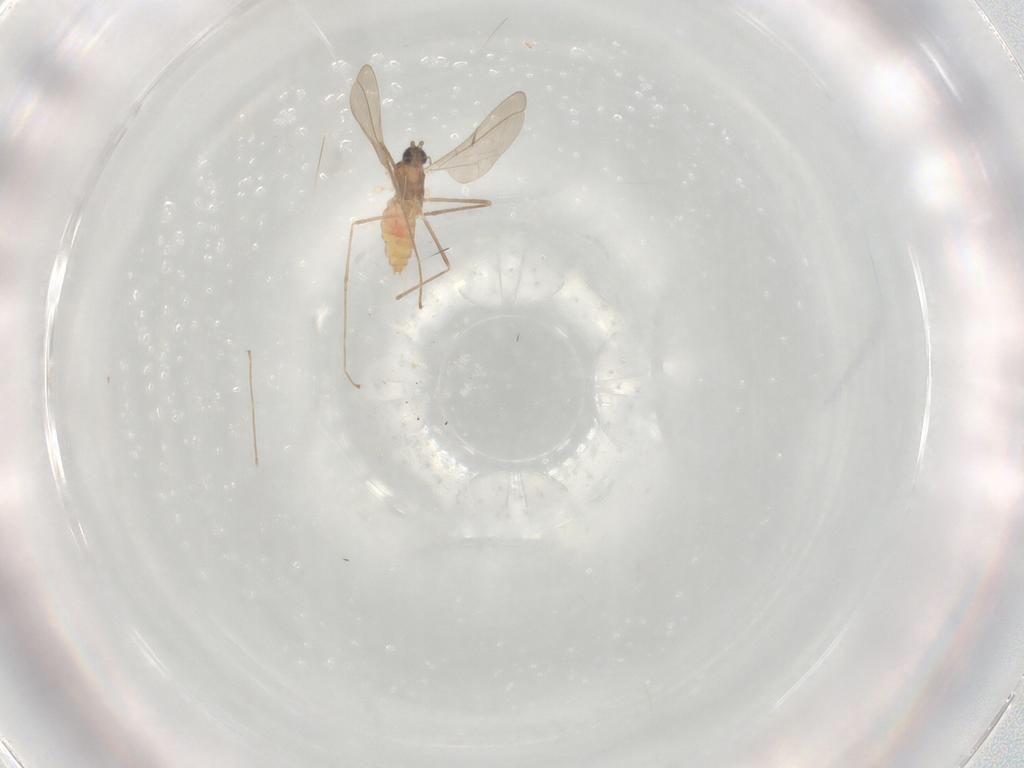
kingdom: Animalia
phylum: Arthropoda
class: Insecta
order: Diptera
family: Cecidomyiidae
